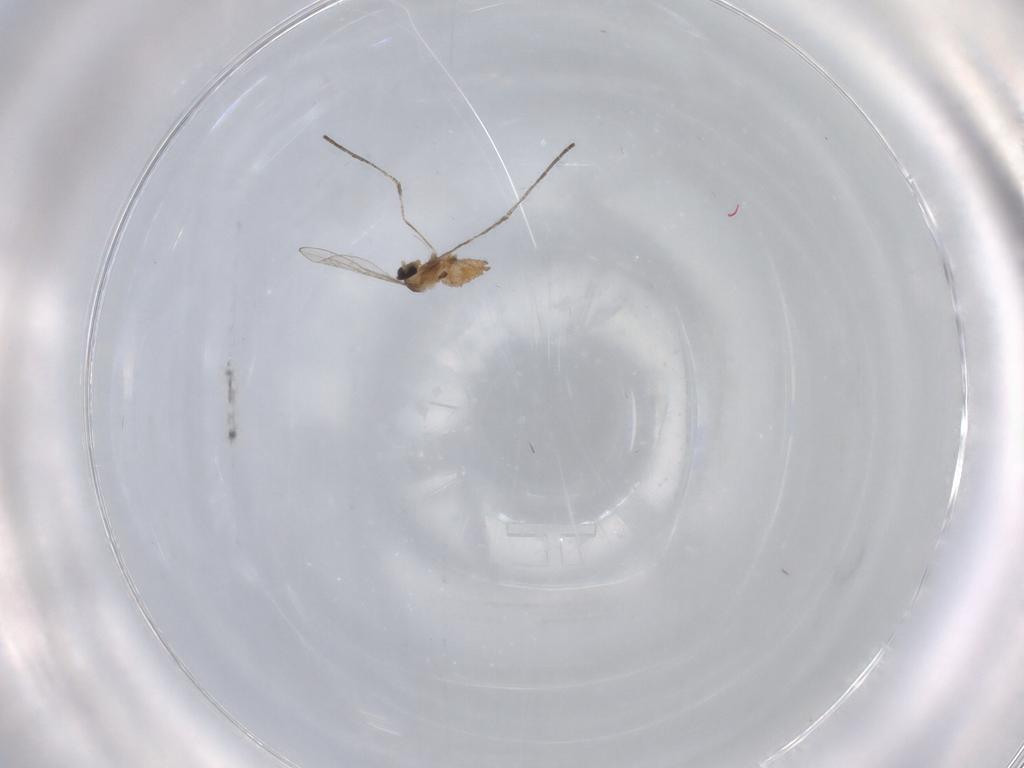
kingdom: Animalia
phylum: Arthropoda
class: Insecta
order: Diptera
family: Cecidomyiidae
